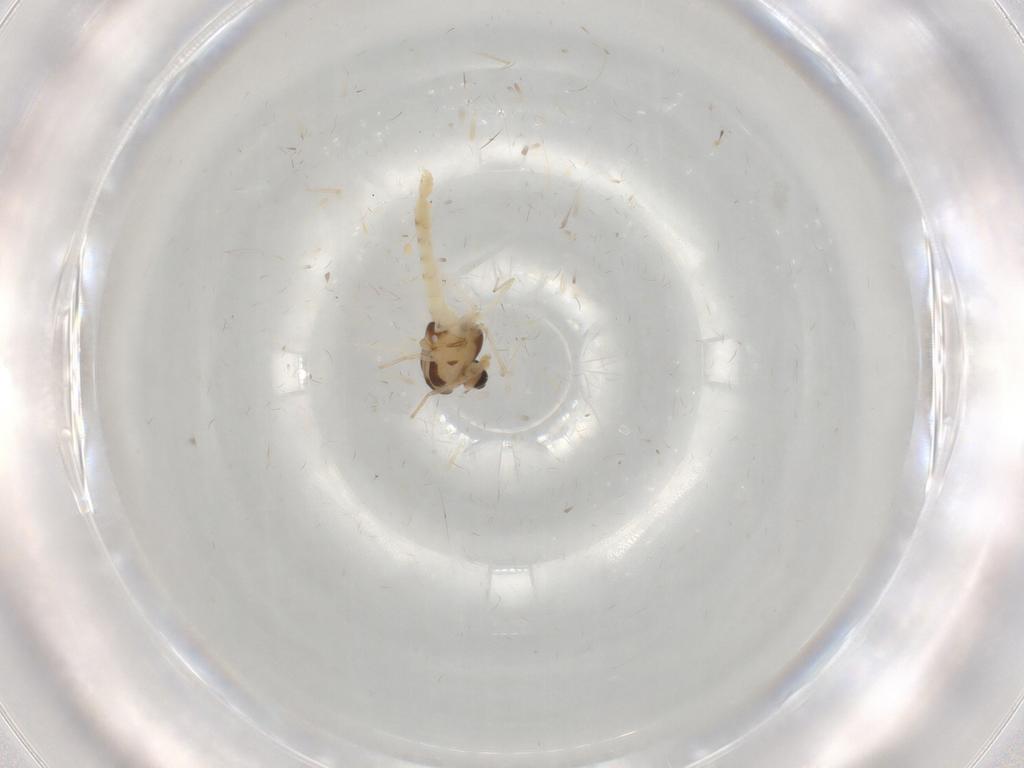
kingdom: Animalia
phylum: Arthropoda
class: Insecta
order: Diptera
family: Chironomidae
